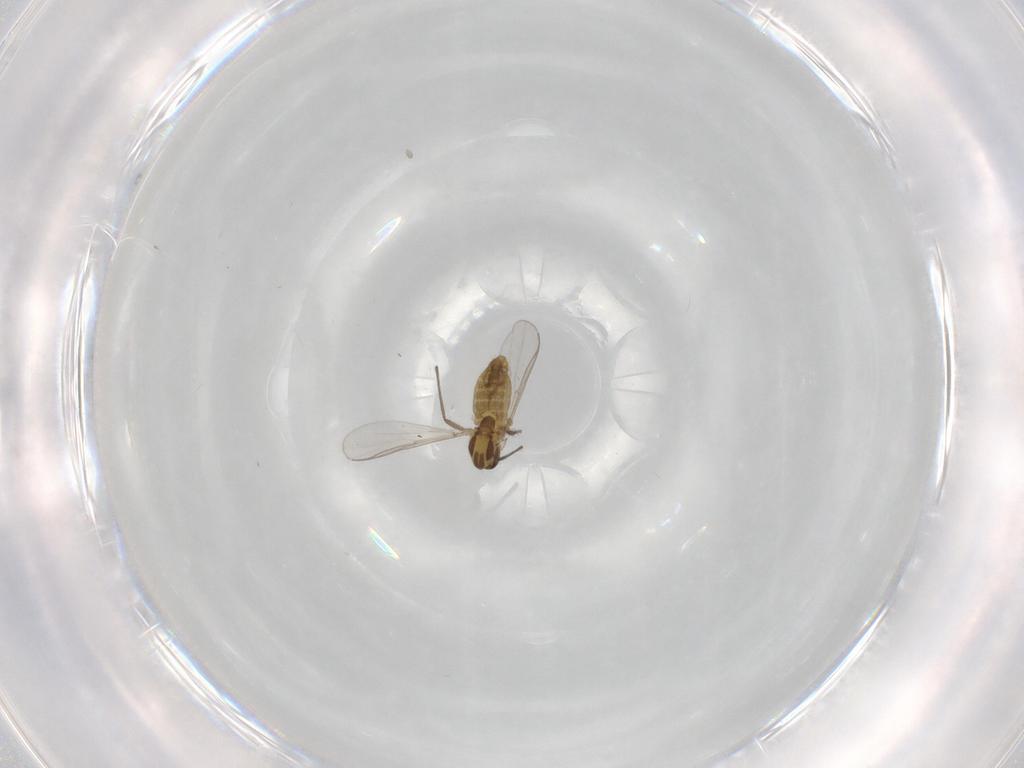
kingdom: Animalia
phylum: Arthropoda
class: Insecta
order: Diptera
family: Chironomidae
